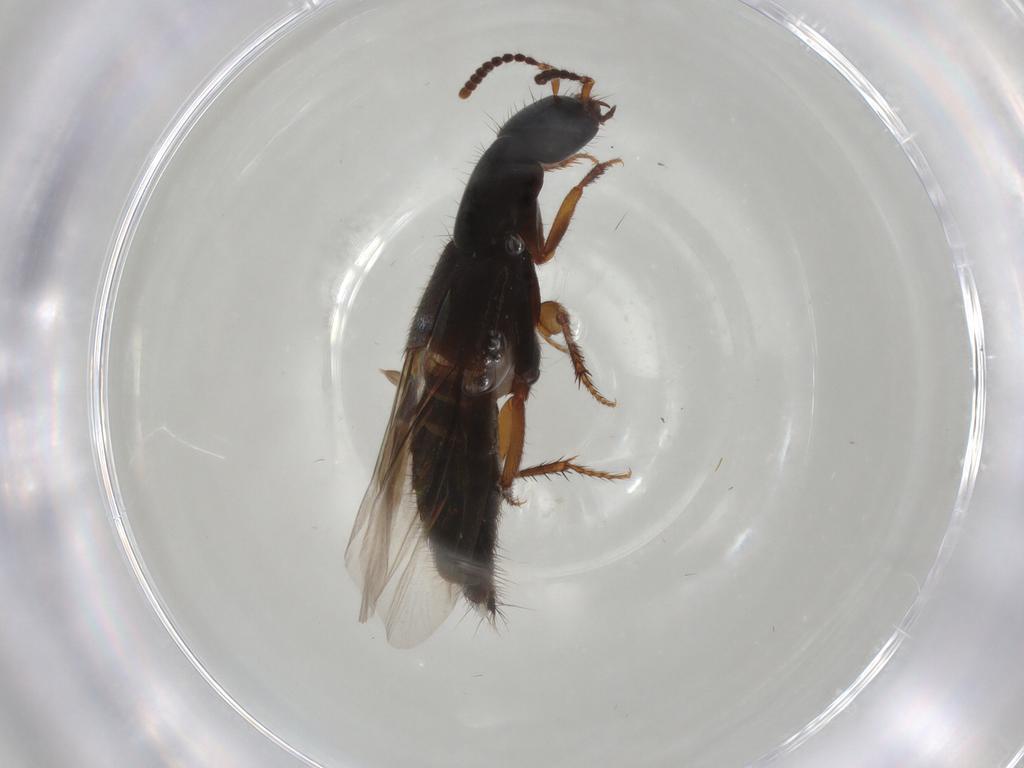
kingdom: Animalia
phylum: Arthropoda
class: Insecta
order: Coleoptera
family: Staphylinidae
